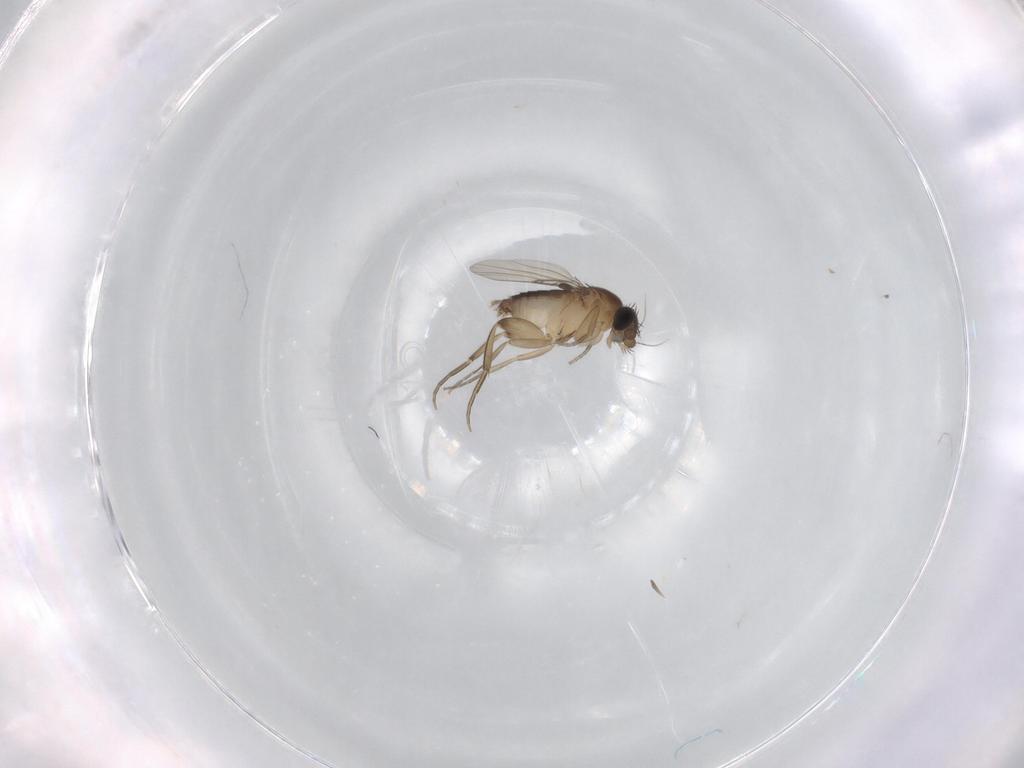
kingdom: Animalia
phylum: Arthropoda
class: Insecta
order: Diptera
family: Phoridae
